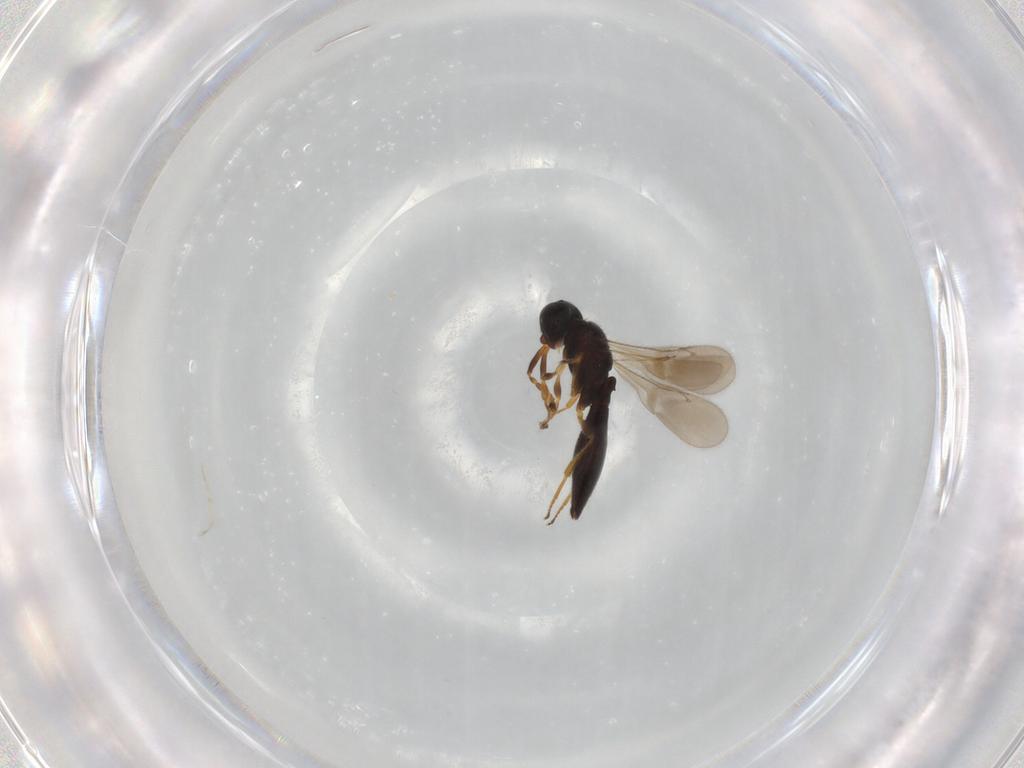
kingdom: Animalia
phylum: Arthropoda
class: Insecta
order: Hymenoptera
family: Scelionidae
